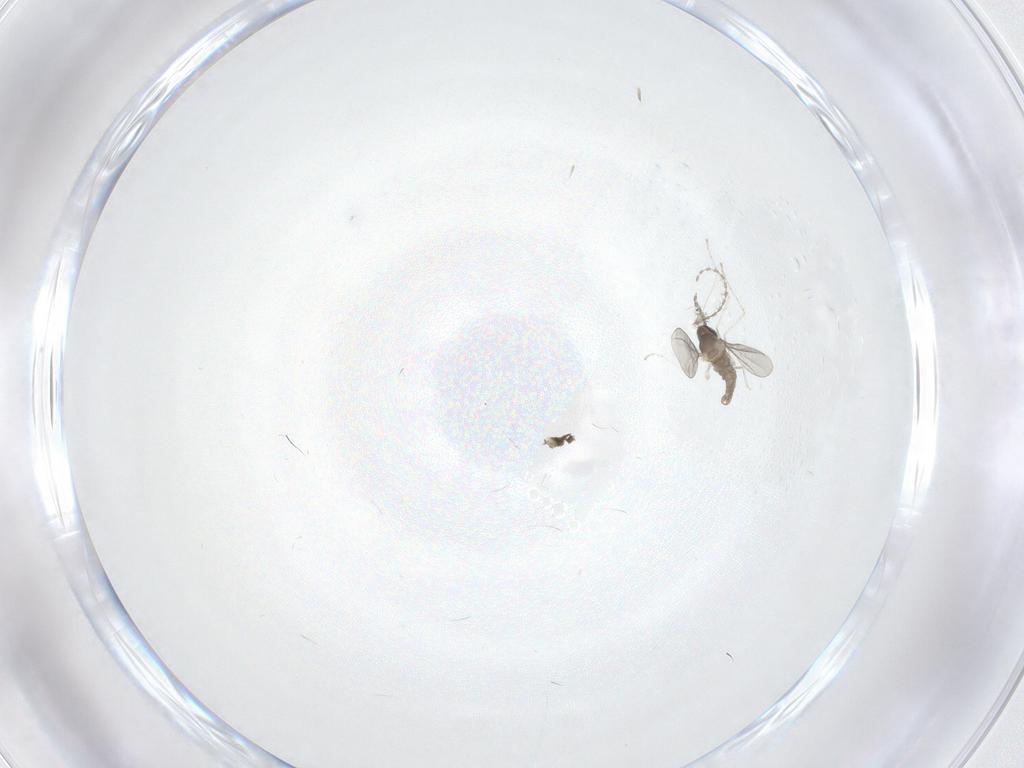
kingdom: Animalia
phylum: Arthropoda
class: Insecta
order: Diptera
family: Cecidomyiidae
